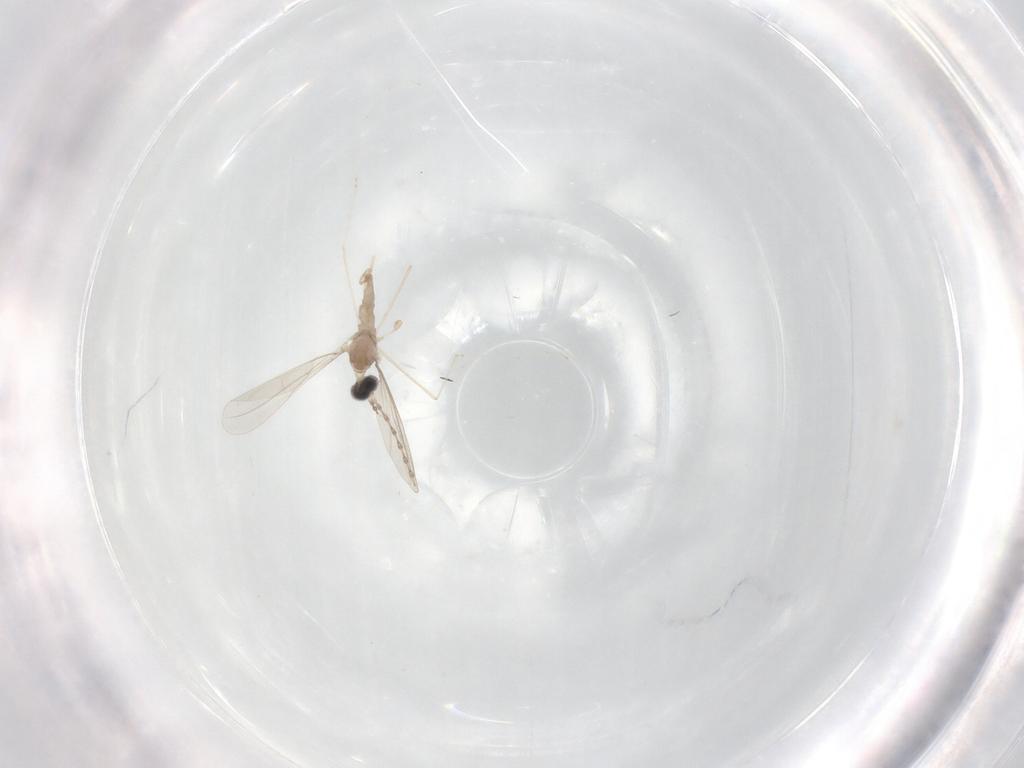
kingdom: Animalia
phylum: Arthropoda
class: Insecta
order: Diptera
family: Cecidomyiidae
